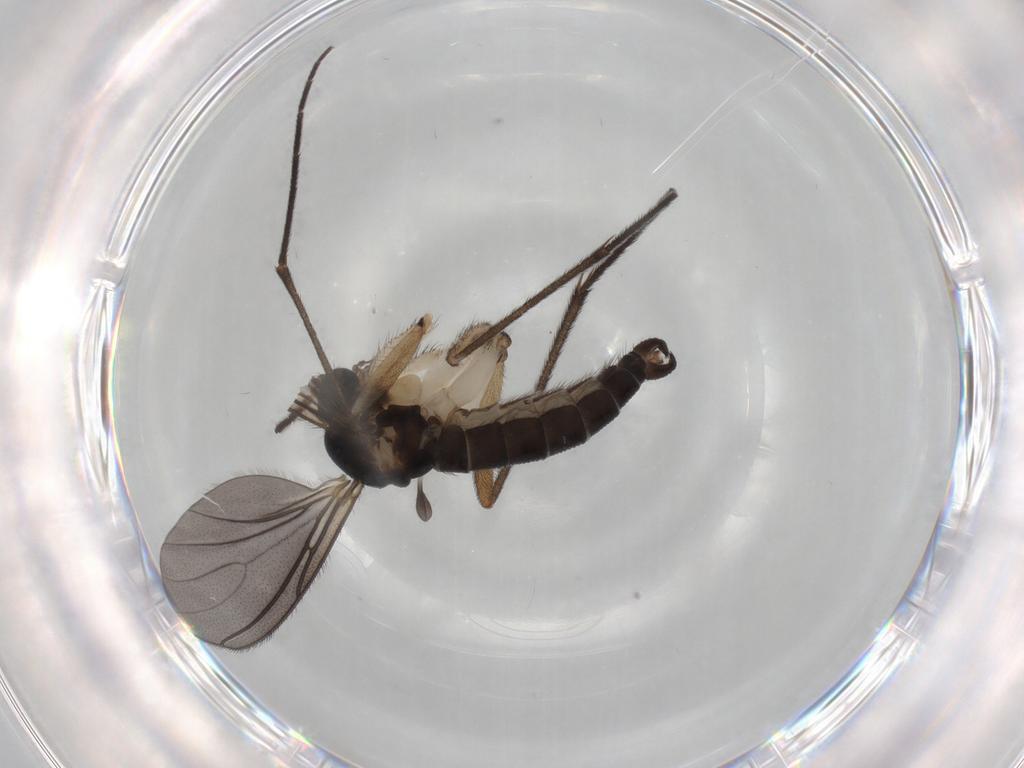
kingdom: Animalia
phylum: Arthropoda
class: Insecta
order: Diptera
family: Sciaridae
